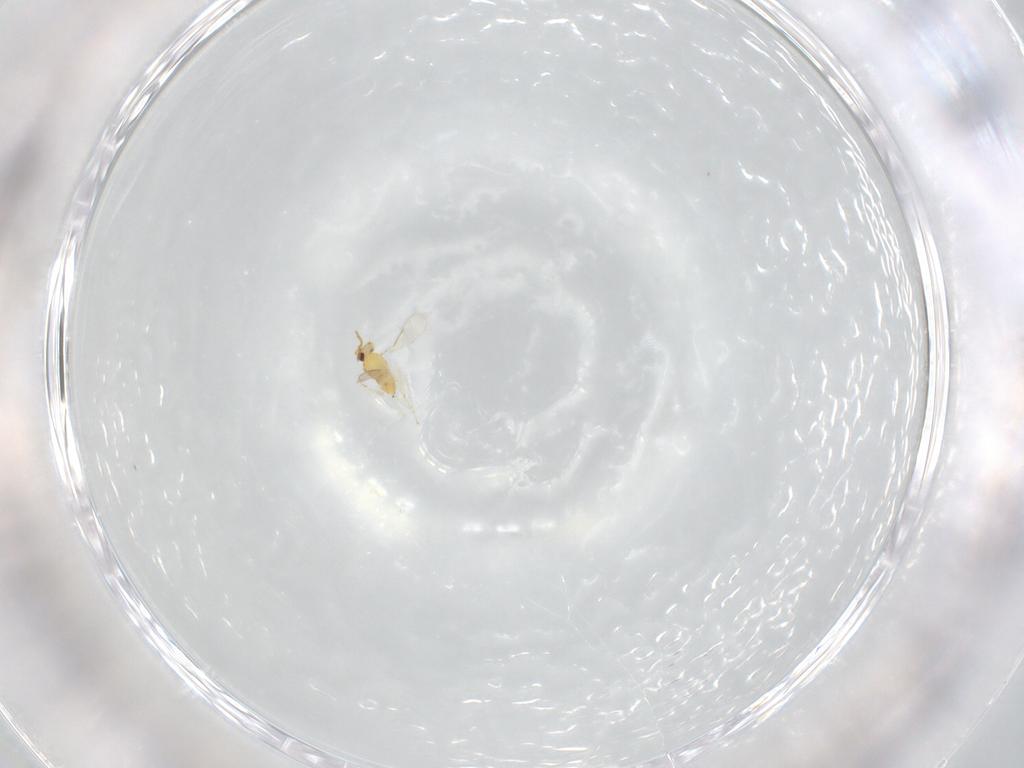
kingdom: Animalia
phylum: Arthropoda
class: Insecta
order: Hymenoptera
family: Aphelinidae
